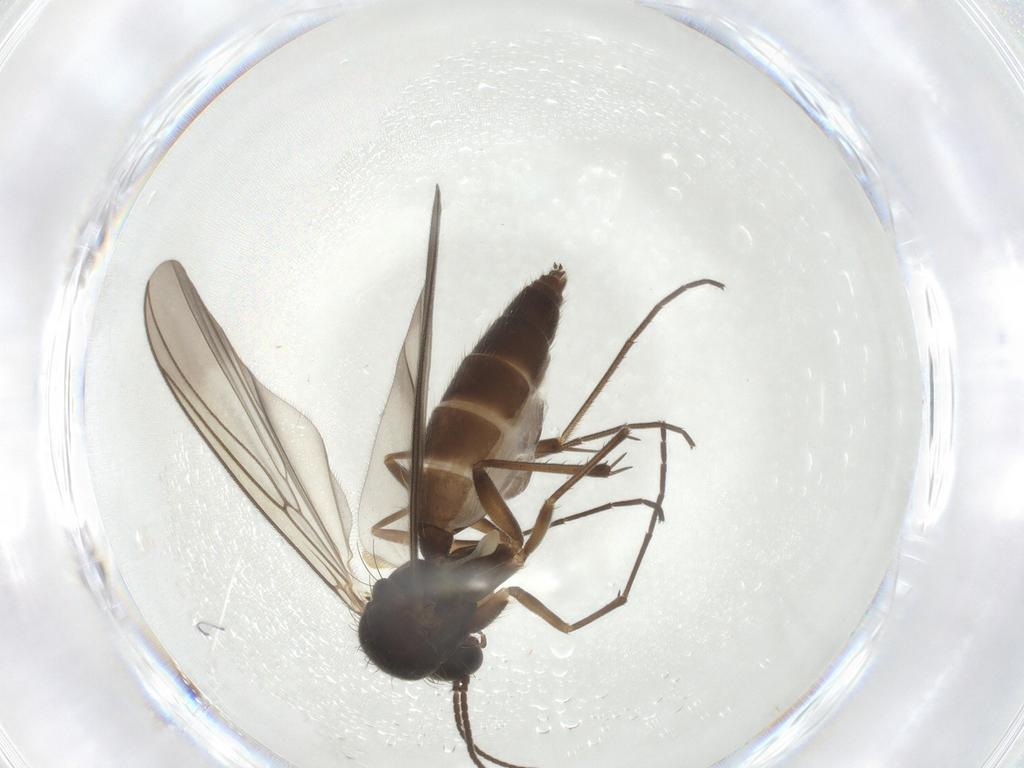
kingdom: Animalia
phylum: Arthropoda
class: Insecta
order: Diptera
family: Mycetophilidae
